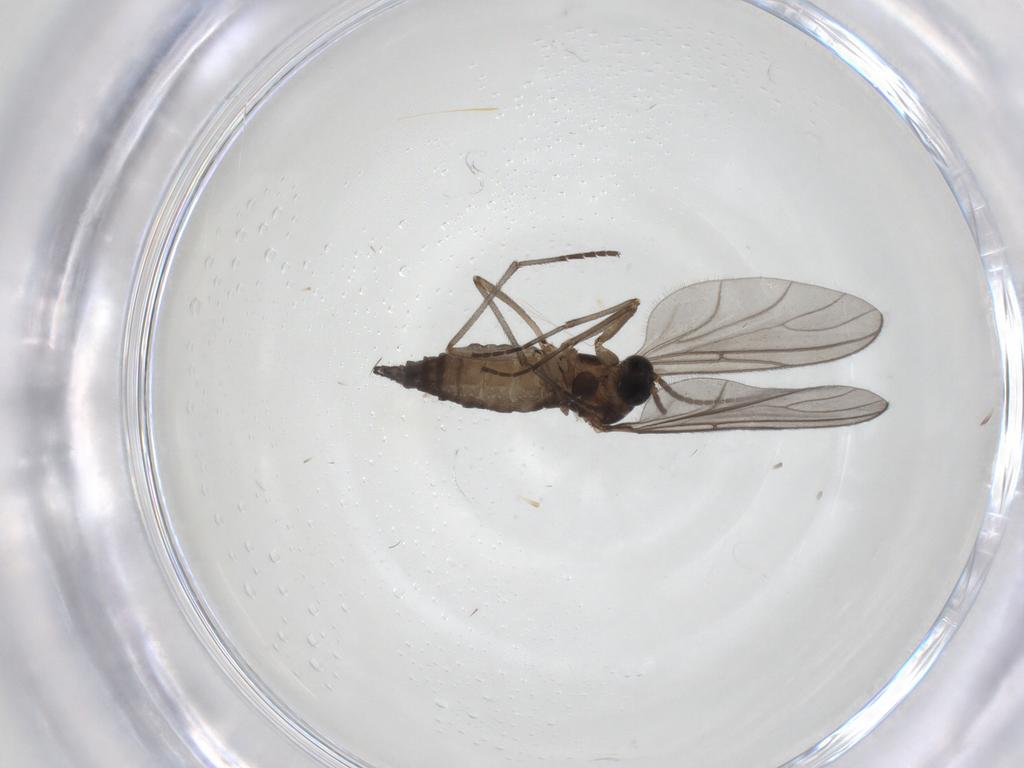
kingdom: Animalia
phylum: Arthropoda
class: Insecta
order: Diptera
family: Sciaridae
